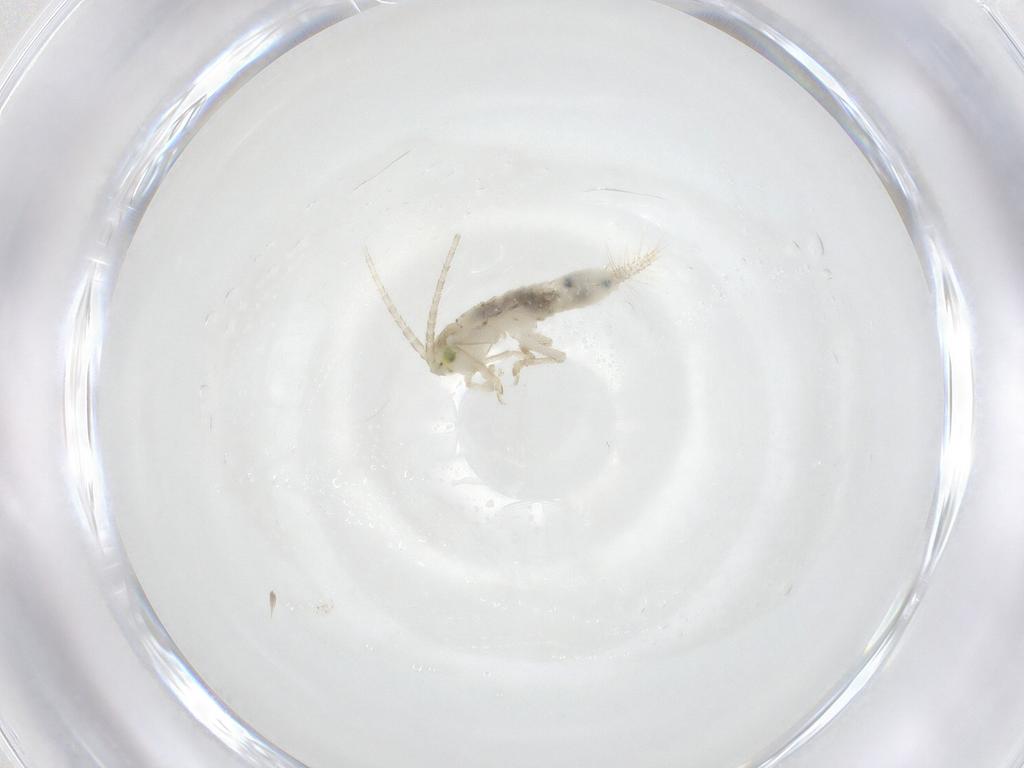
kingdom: Animalia
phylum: Arthropoda
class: Insecta
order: Orthoptera
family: Trigonidiidae
